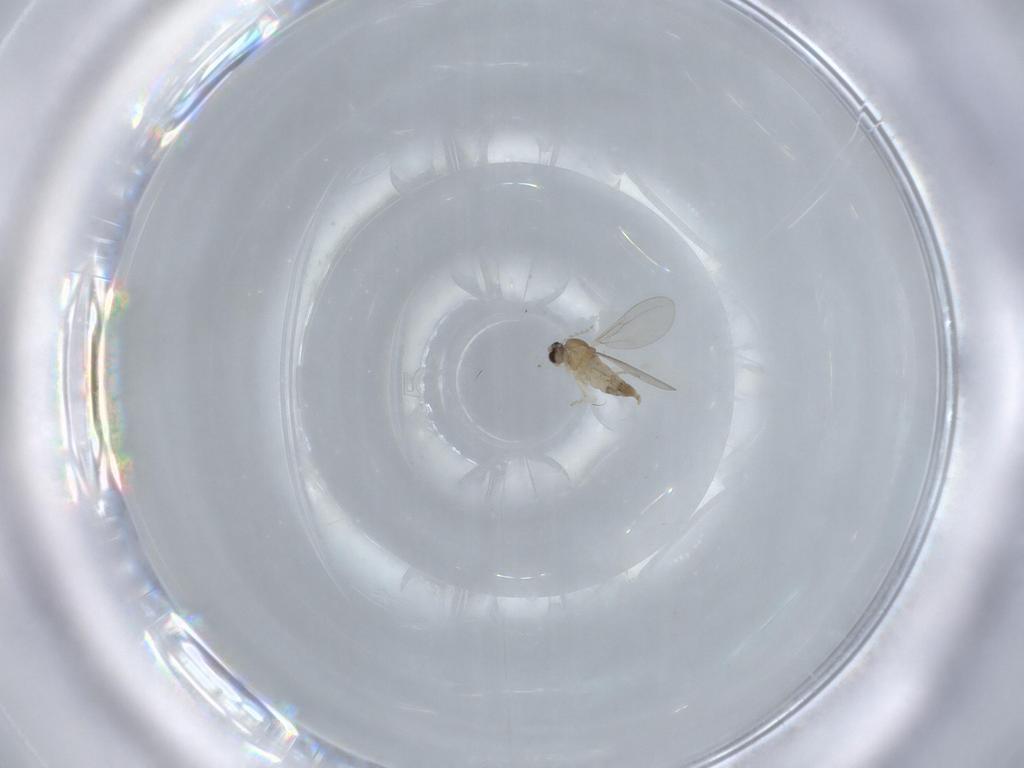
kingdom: Animalia
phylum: Arthropoda
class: Insecta
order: Diptera
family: Cecidomyiidae
